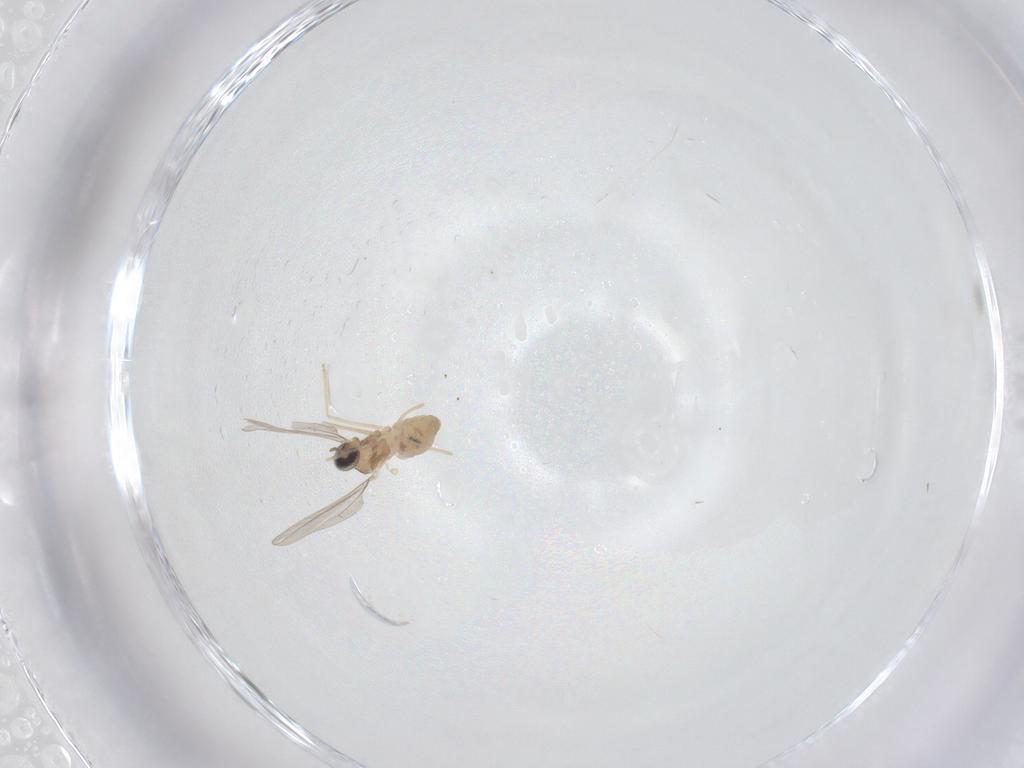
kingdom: Animalia
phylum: Arthropoda
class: Insecta
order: Diptera
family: Cecidomyiidae
